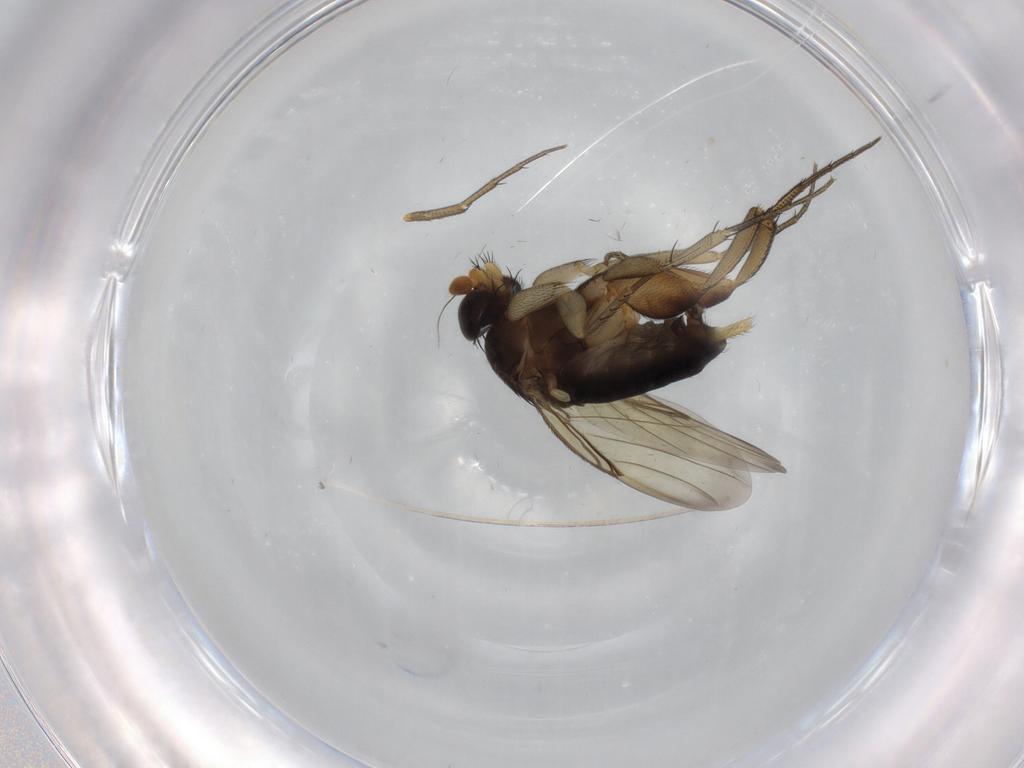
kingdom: Animalia
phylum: Arthropoda
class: Insecta
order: Diptera
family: Phoridae
